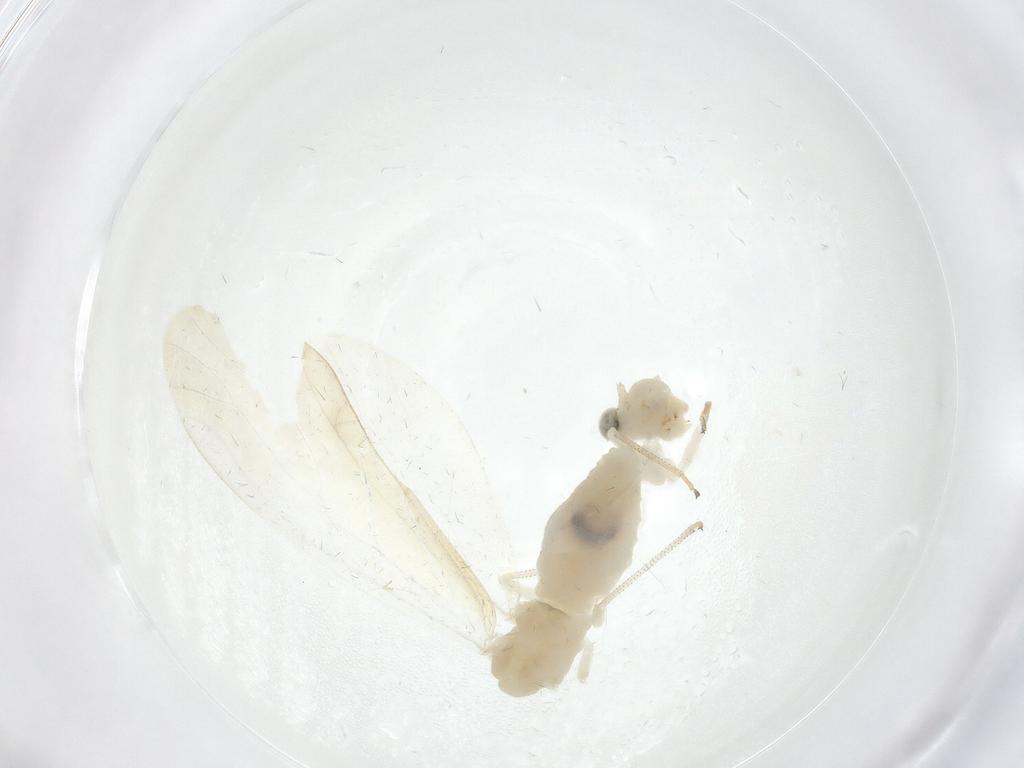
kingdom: Animalia
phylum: Arthropoda
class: Insecta
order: Psocodea
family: Caeciliusidae
